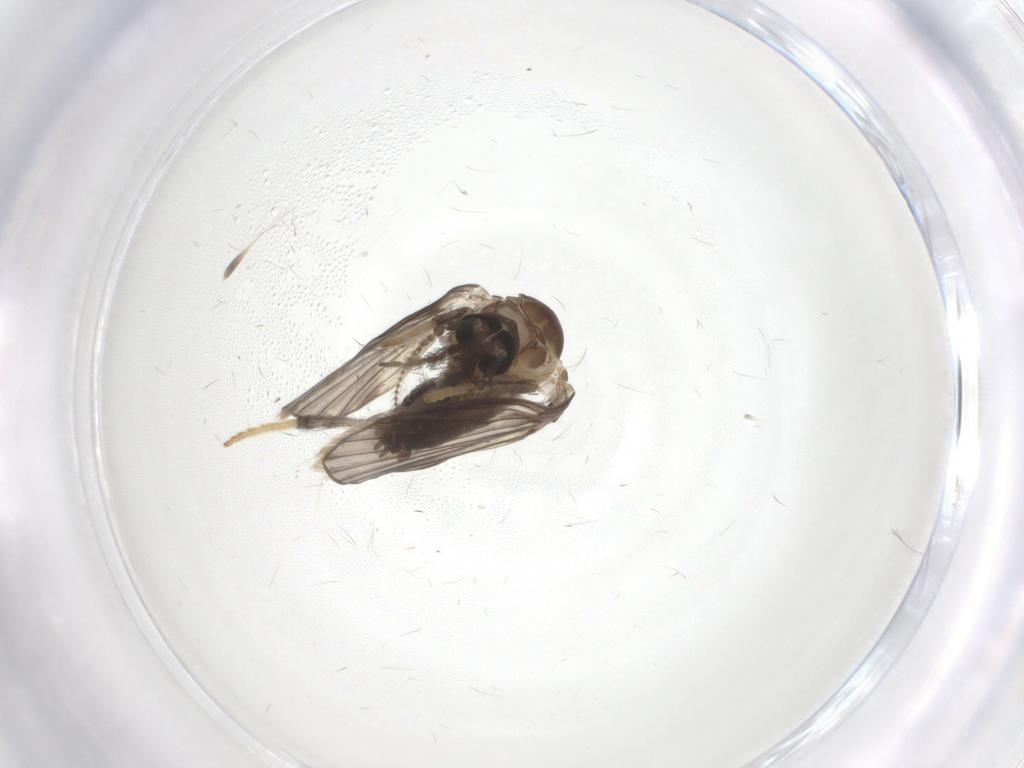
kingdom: Animalia
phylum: Arthropoda
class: Insecta
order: Diptera
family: Psychodidae
